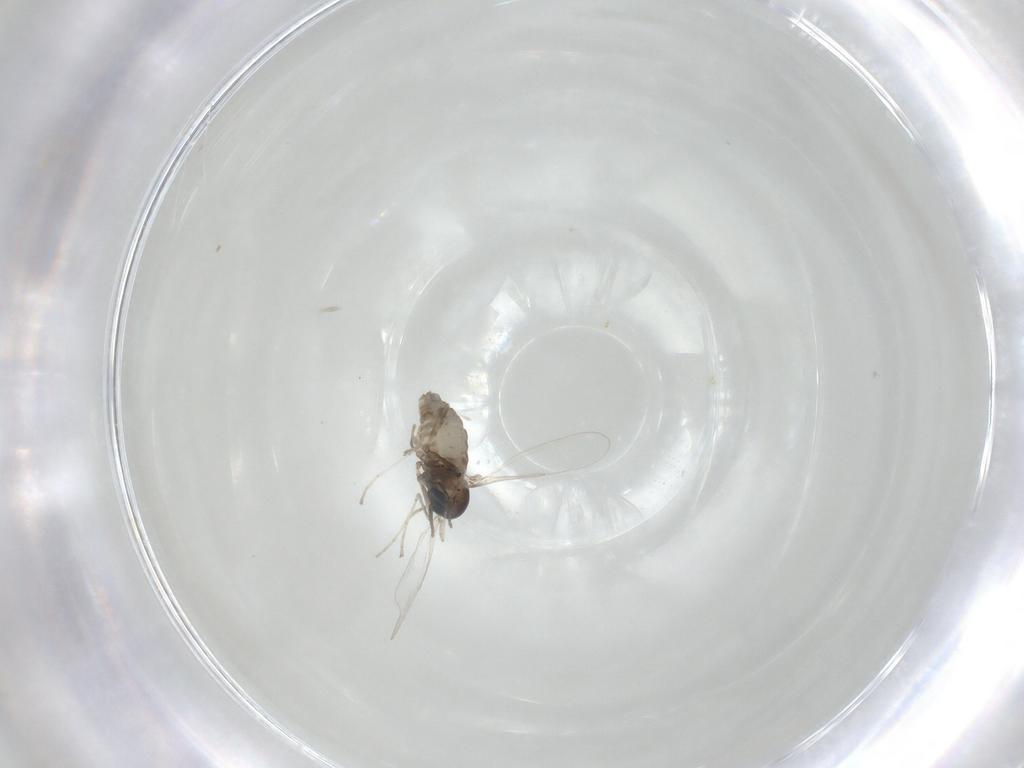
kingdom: Animalia
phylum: Arthropoda
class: Insecta
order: Diptera
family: Cecidomyiidae
